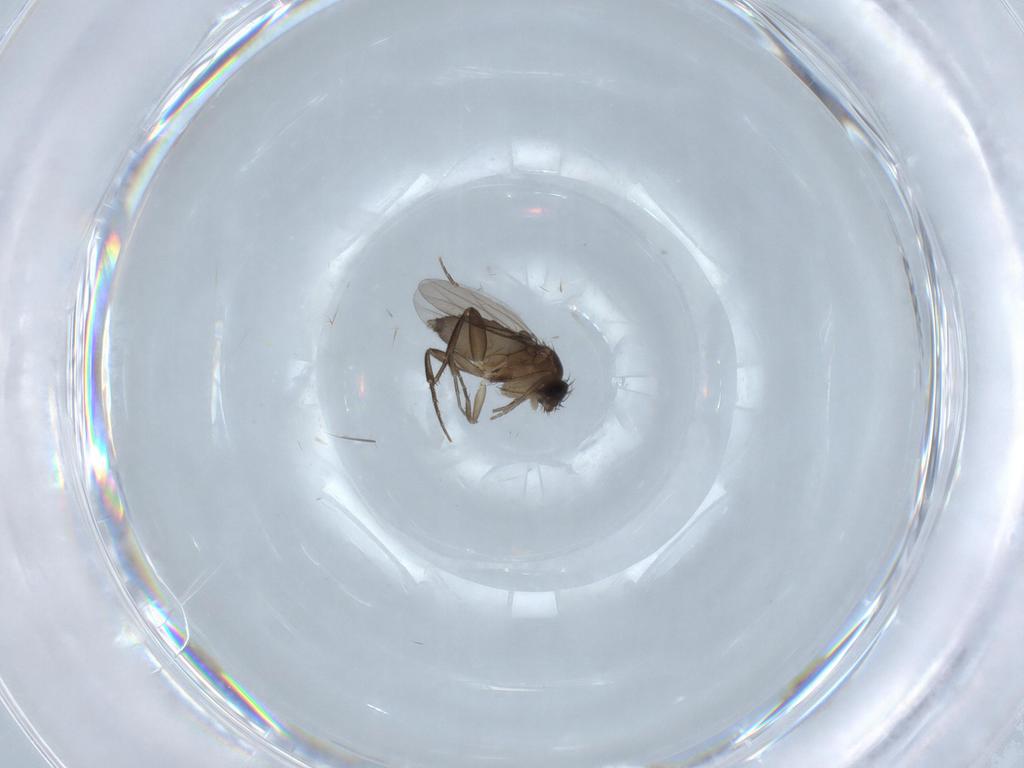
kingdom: Animalia
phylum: Arthropoda
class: Insecta
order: Diptera
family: Phoridae
